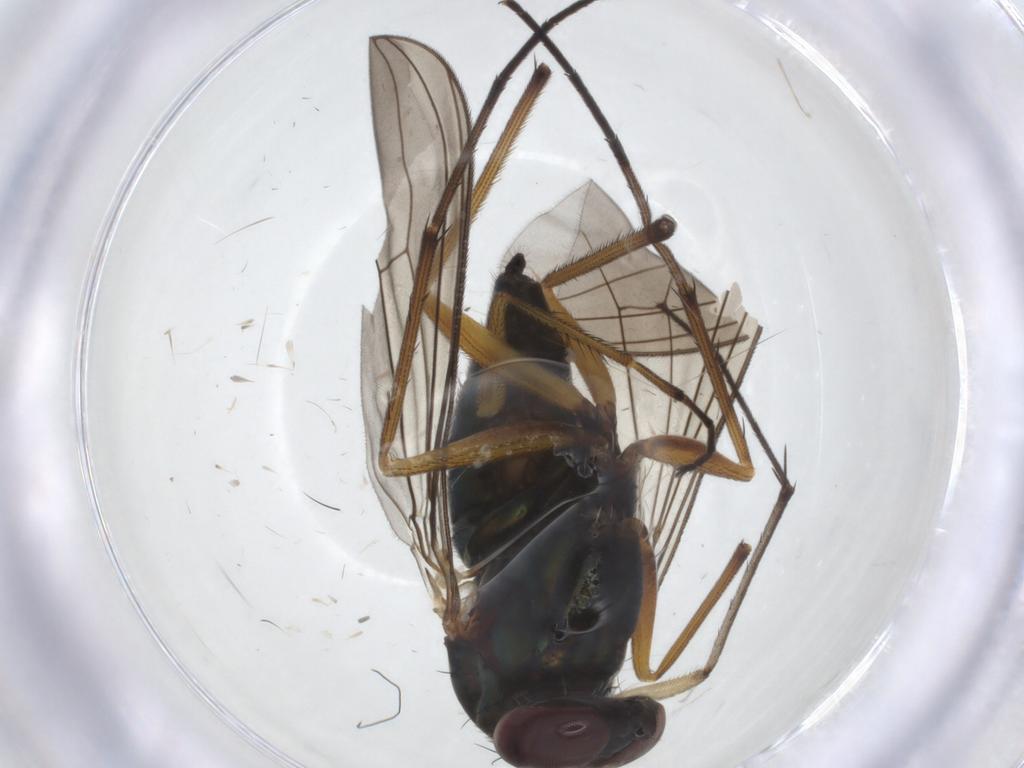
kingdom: Animalia
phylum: Arthropoda
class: Insecta
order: Diptera
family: Dolichopodidae
